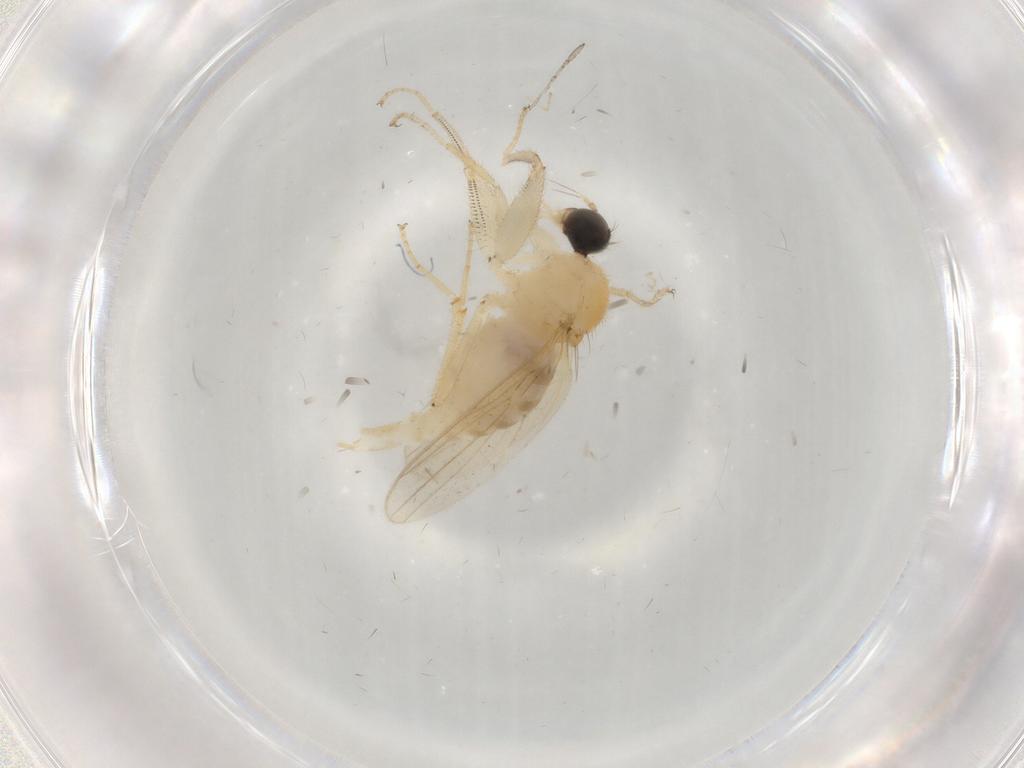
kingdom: Animalia
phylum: Arthropoda
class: Insecta
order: Diptera
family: Hybotidae
